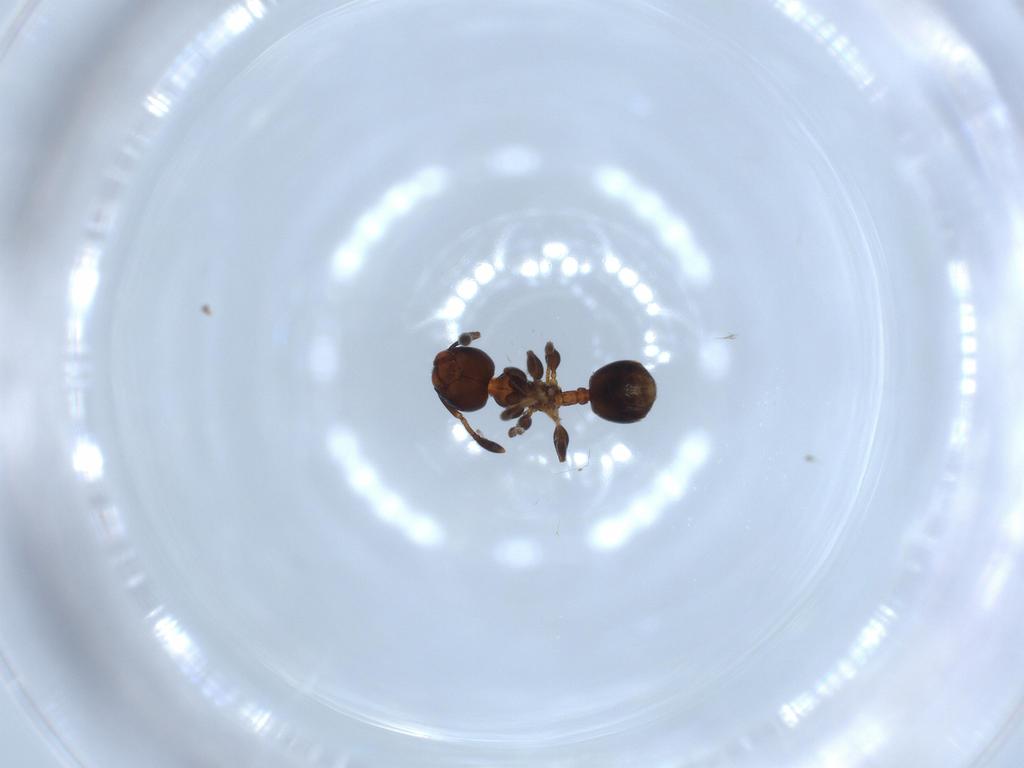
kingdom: Animalia
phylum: Arthropoda
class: Insecta
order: Hymenoptera
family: Formicidae
